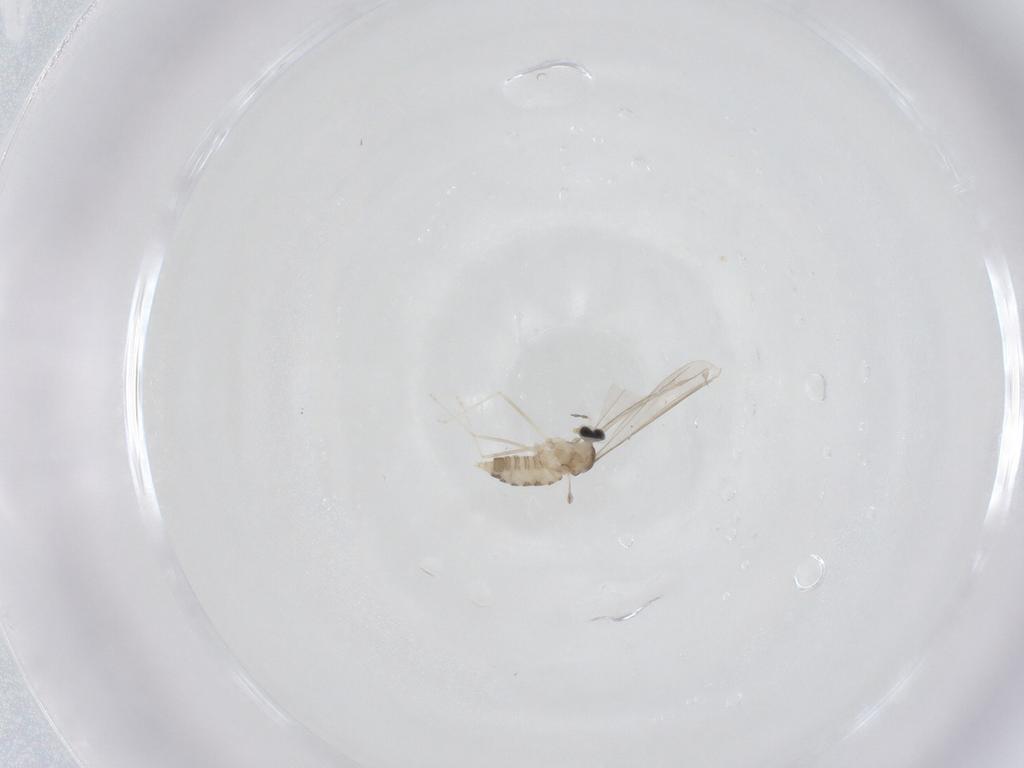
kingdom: Animalia
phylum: Arthropoda
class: Insecta
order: Diptera
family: Cecidomyiidae
